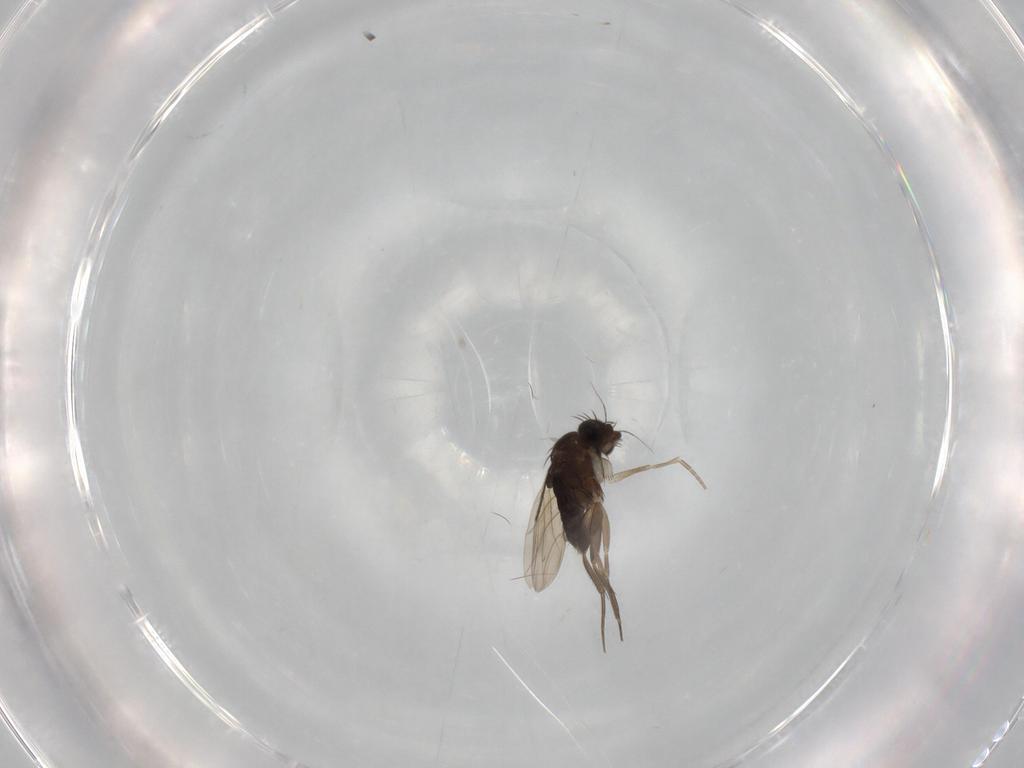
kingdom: Animalia
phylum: Arthropoda
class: Insecta
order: Diptera
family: Phoridae
